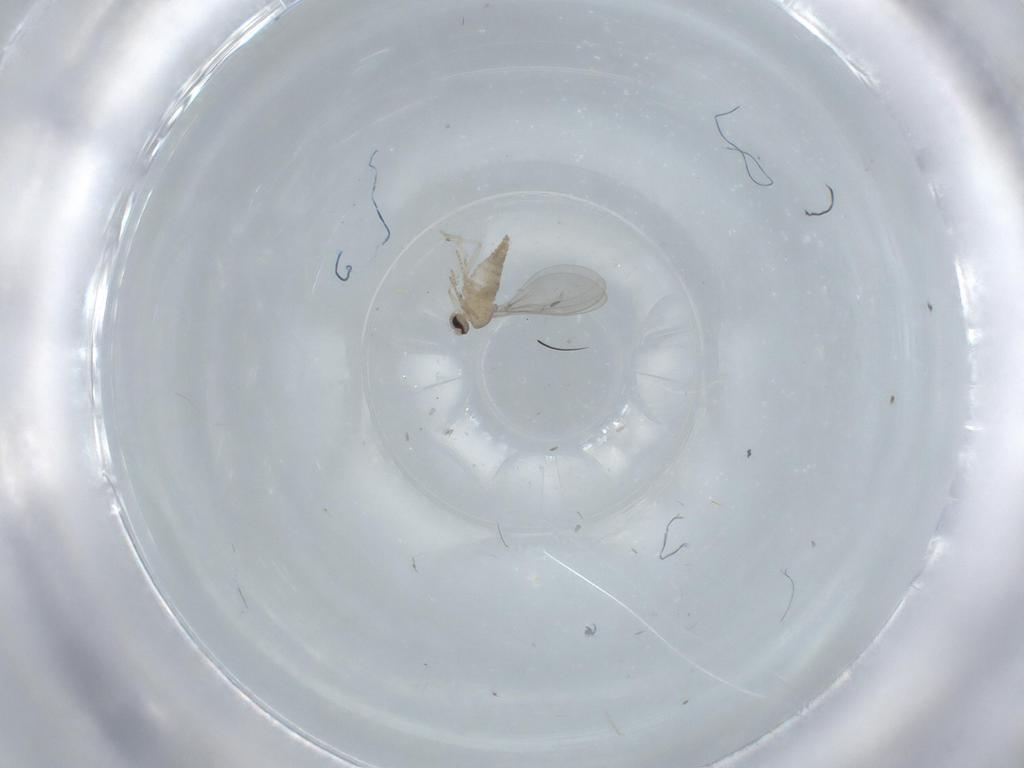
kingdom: Animalia
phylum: Arthropoda
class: Insecta
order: Diptera
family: Cecidomyiidae
